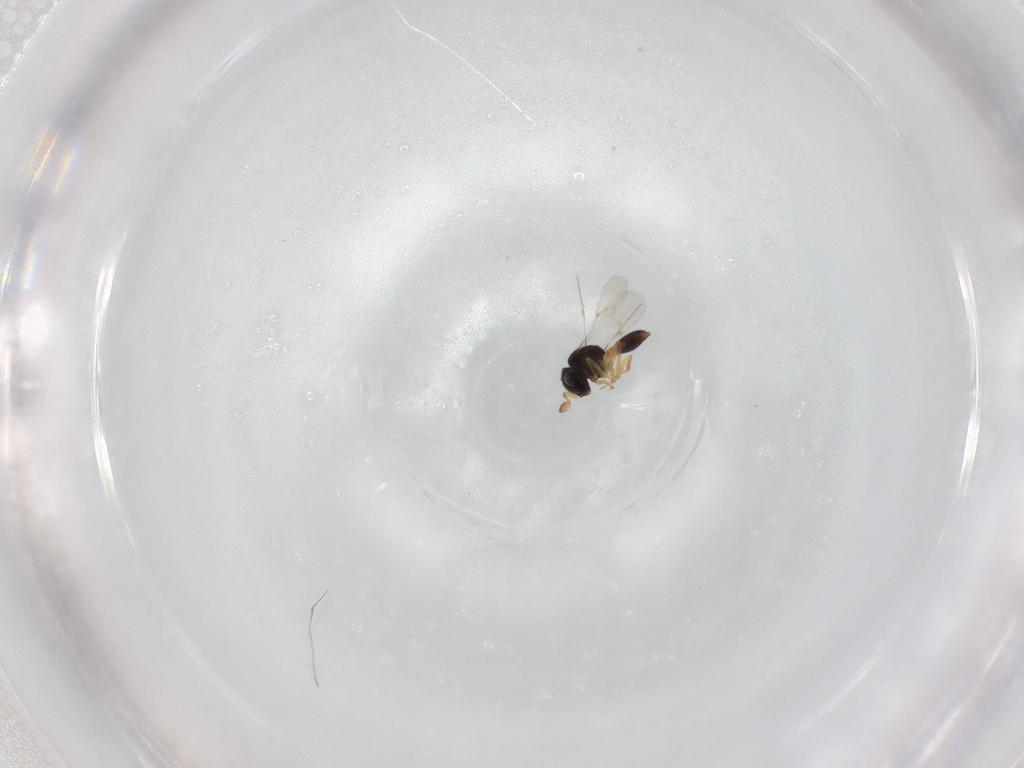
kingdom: Animalia
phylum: Arthropoda
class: Insecta
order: Hymenoptera
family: Scelionidae
